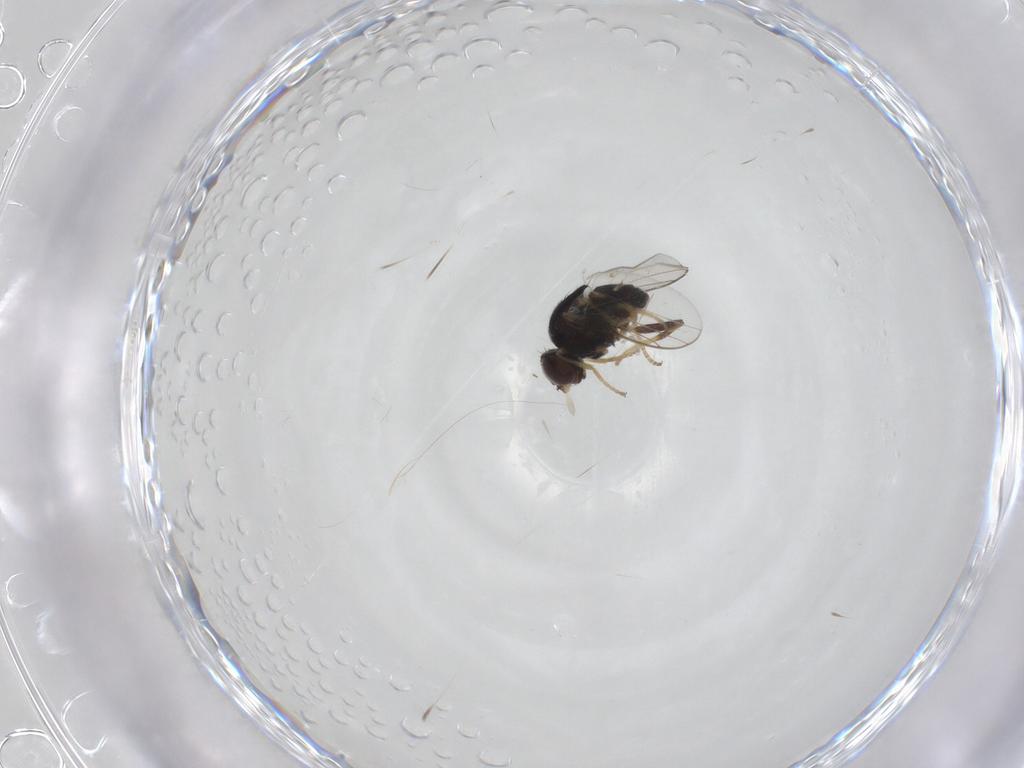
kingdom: Animalia
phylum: Arthropoda
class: Insecta
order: Diptera
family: Chloropidae
